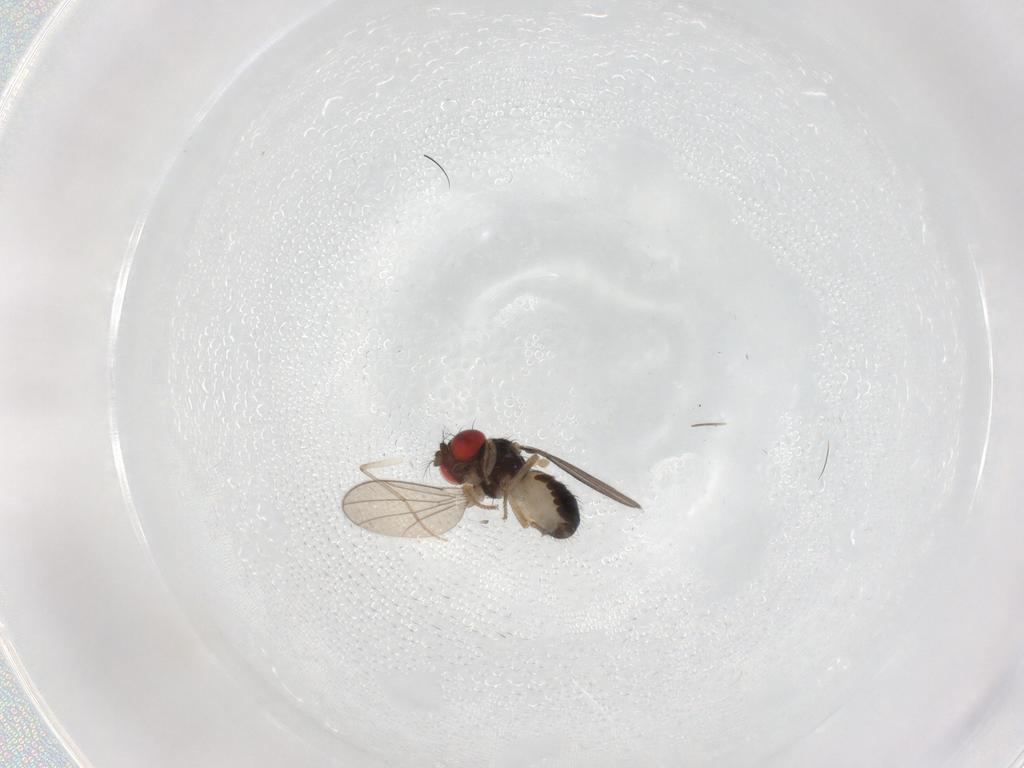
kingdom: Animalia
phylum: Arthropoda
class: Insecta
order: Diptera
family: Drosophilidae
